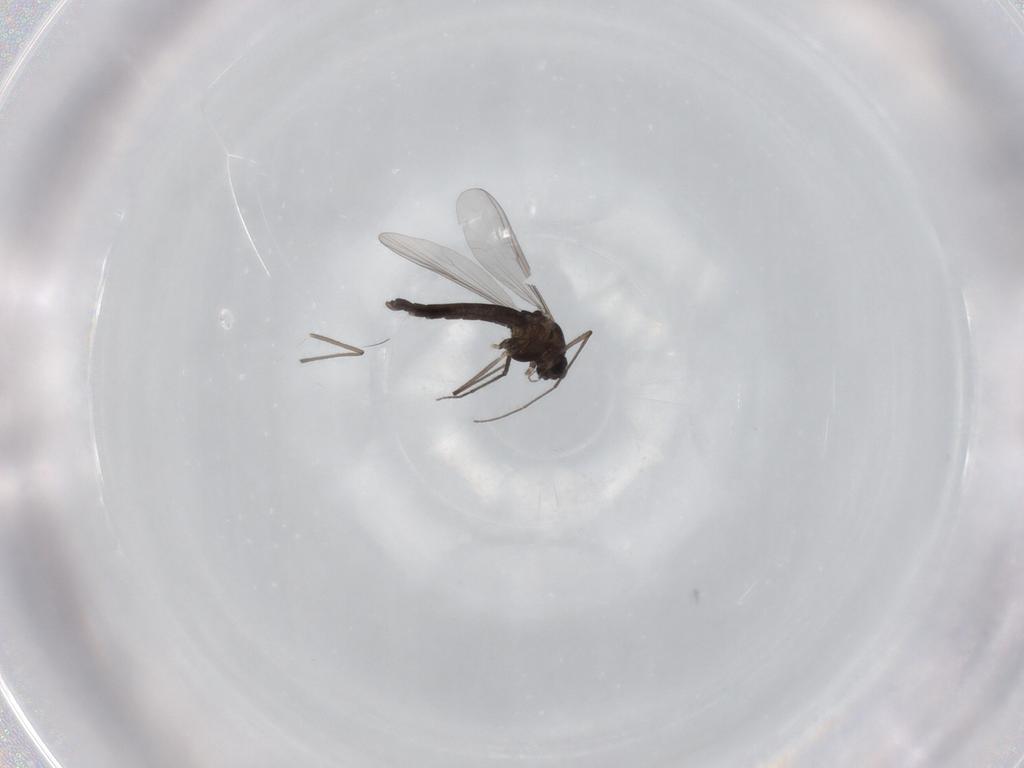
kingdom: Animalia
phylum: Arthropoda
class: Insecta
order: Diptera
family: Chironomidae
